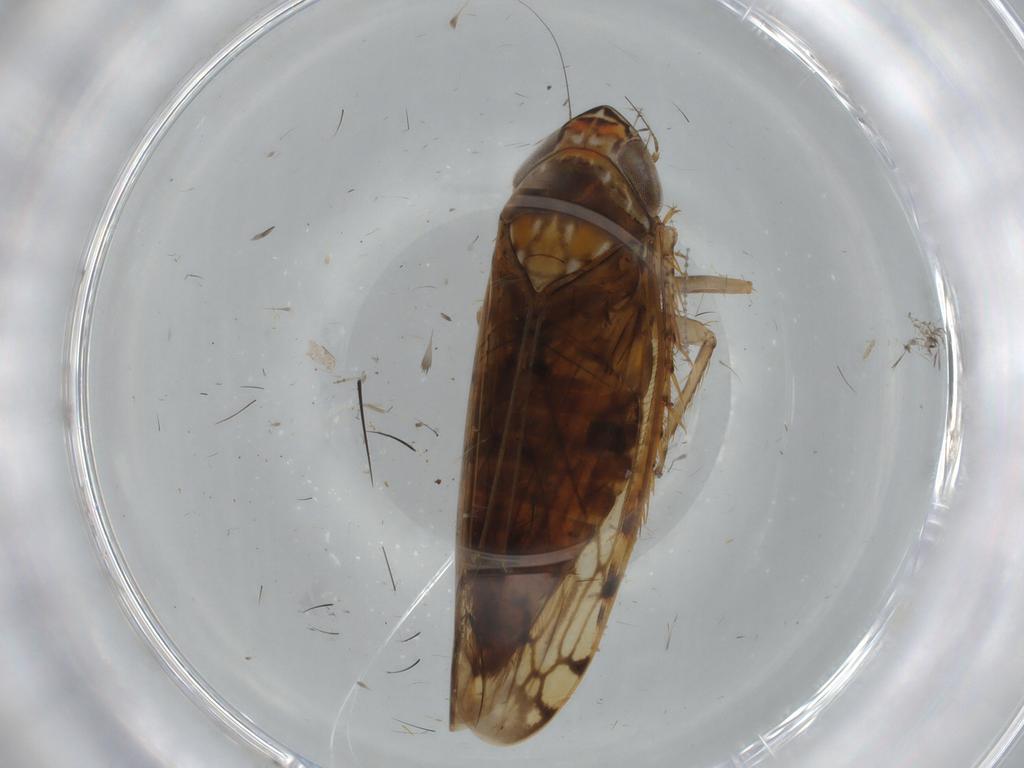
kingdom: Animalia
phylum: Arthropoda
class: Insecta
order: Hemiptera
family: Cicadellidae
